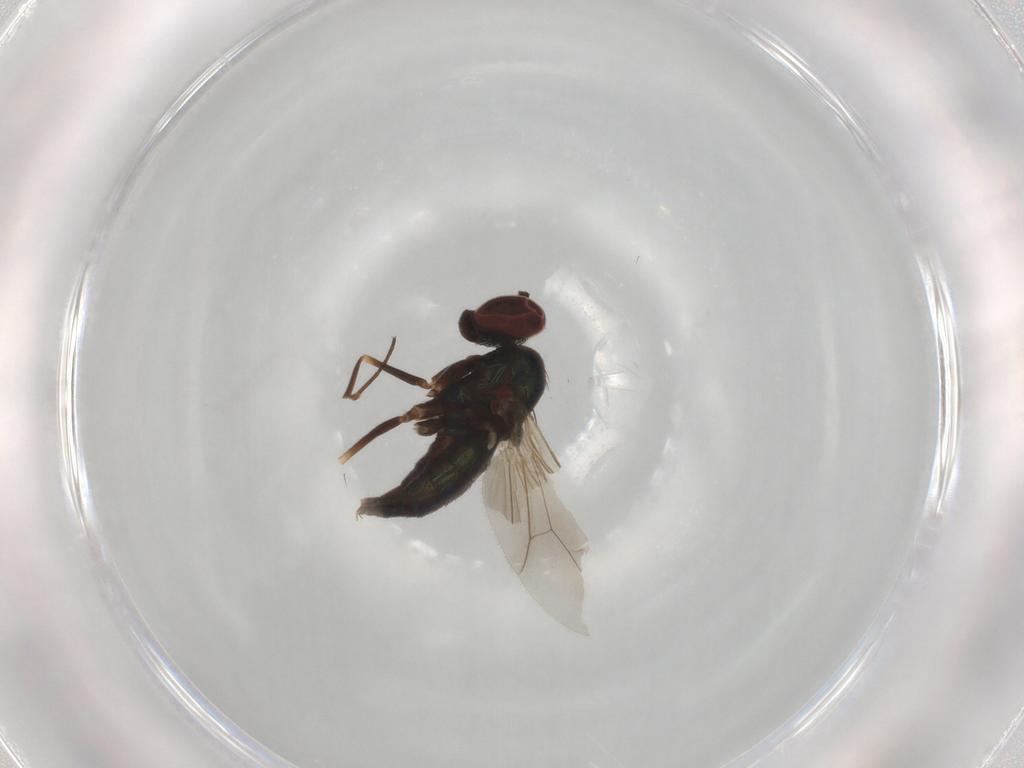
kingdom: Animalia
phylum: Arthropoda
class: Insecta
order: Diptera
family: Dolichopodidae
